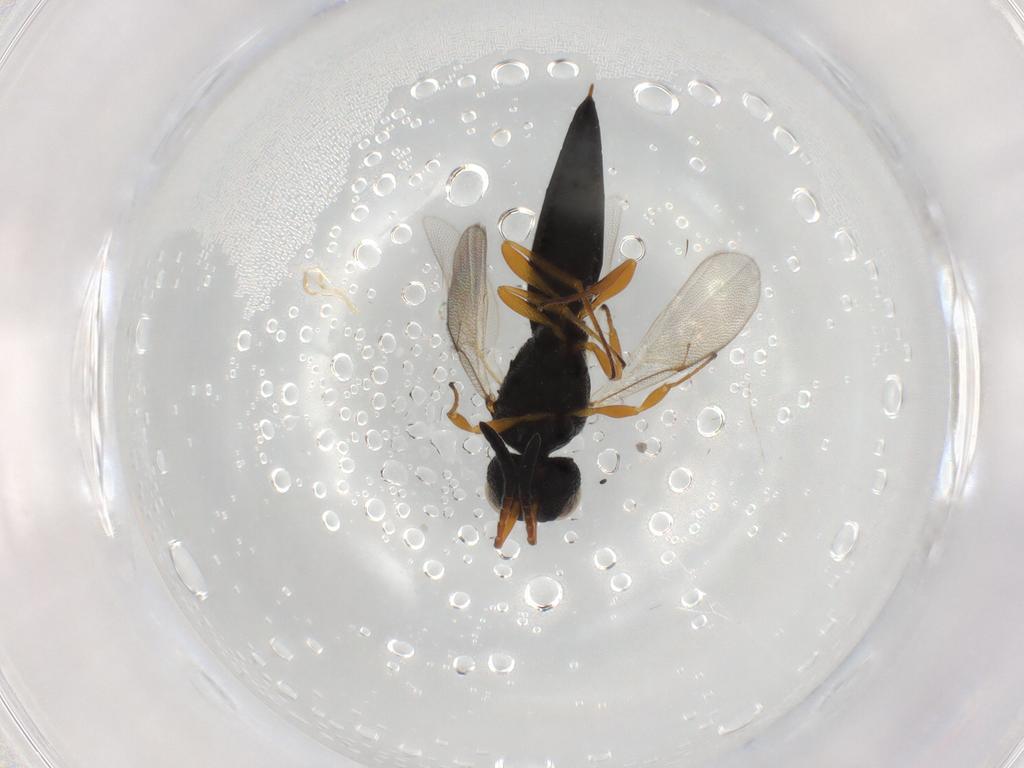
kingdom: Animalia
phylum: Arthropoda
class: Insecta
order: Hymenoptera
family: Scelionidae
